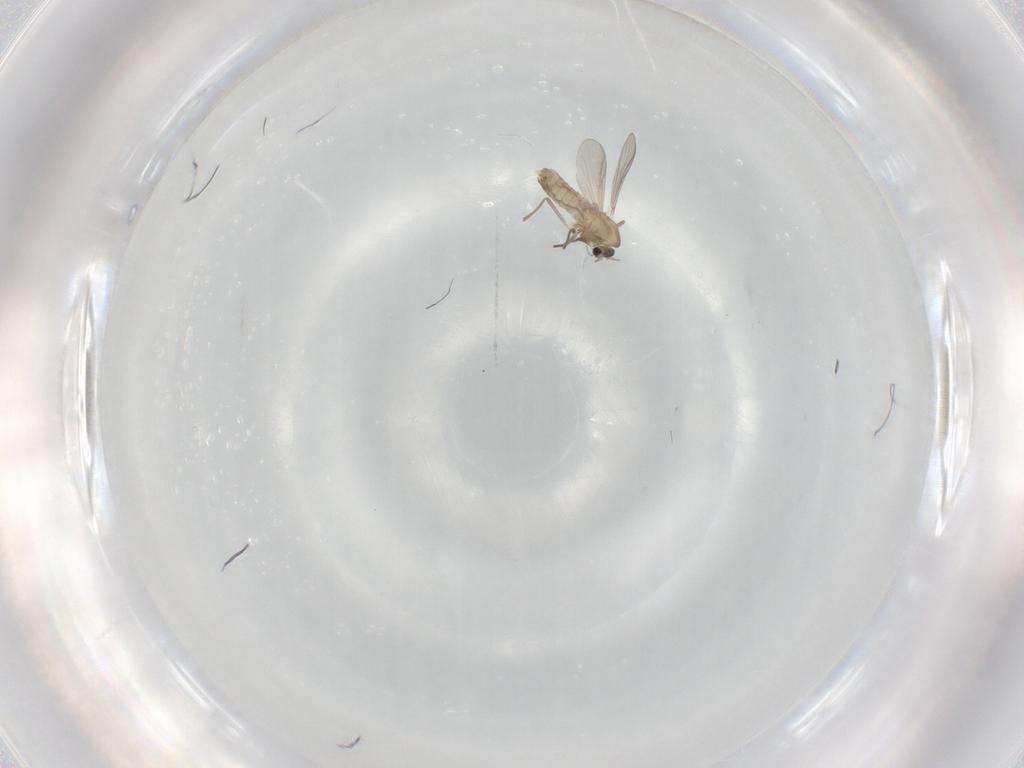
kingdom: Animalia
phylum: Arthropoda
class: Insecta
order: Diptera
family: Chironomidae
